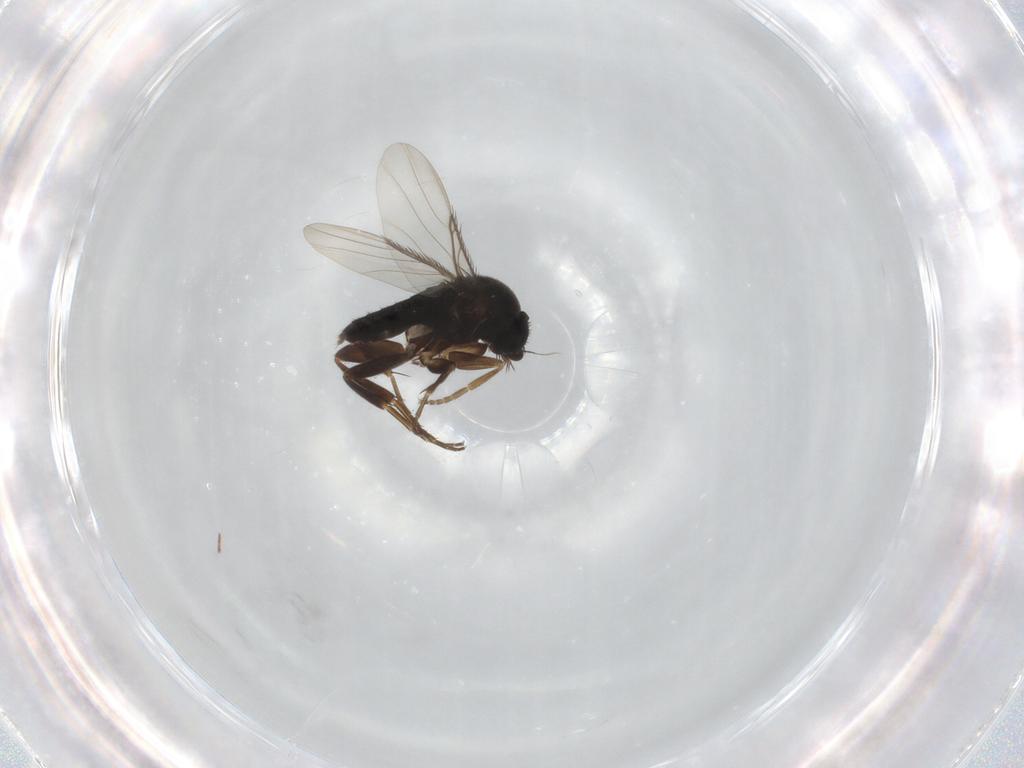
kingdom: Animalia
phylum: Arthropoda
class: Insecta
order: Diptera
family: Phoridae
